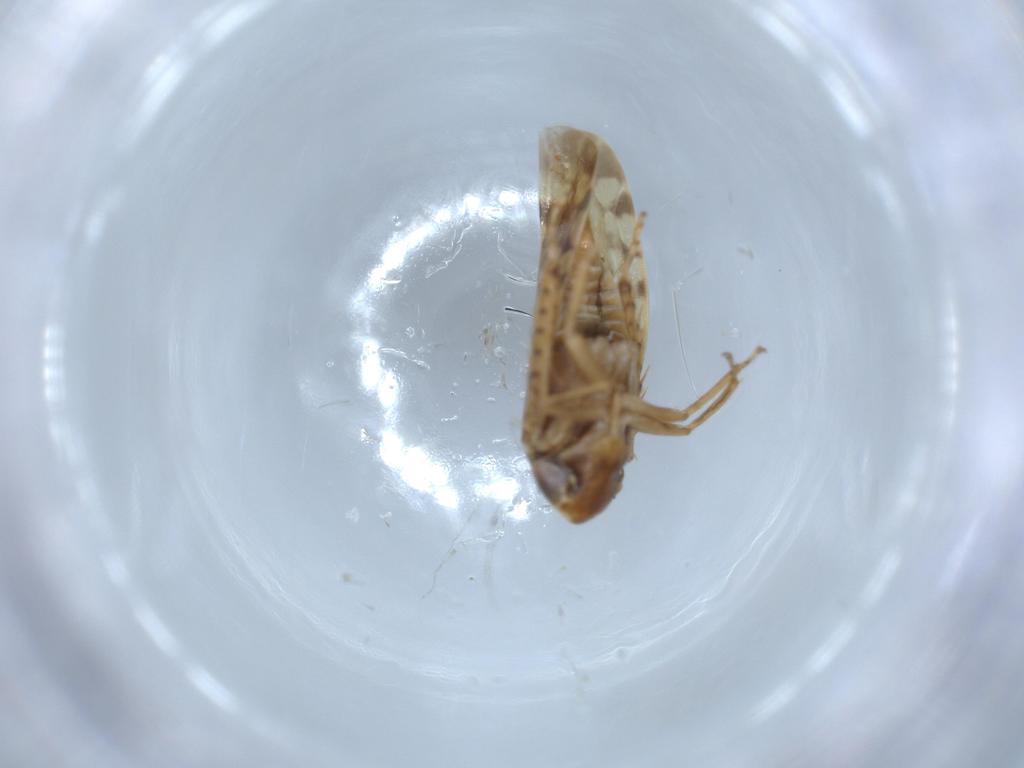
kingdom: Animalia
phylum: Arthropoda
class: Insecta
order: Hemiptera
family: Cicadellidae
